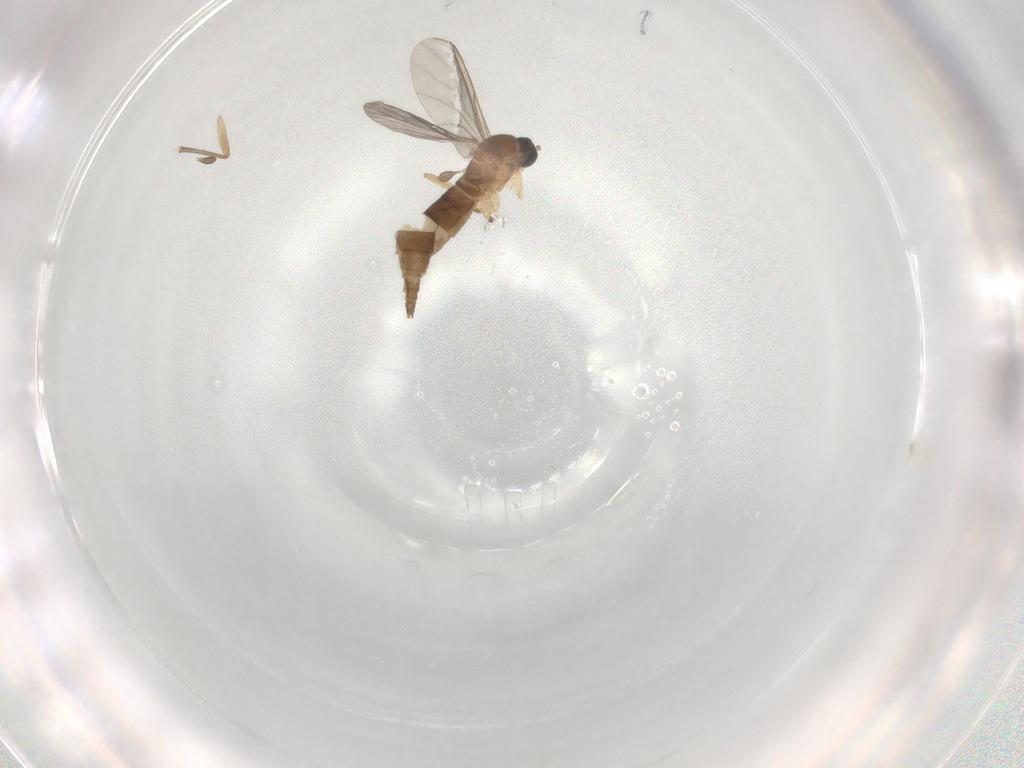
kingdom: Animalia
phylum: Arthropoda
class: Insecta
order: Diptera
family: Sciaridae
